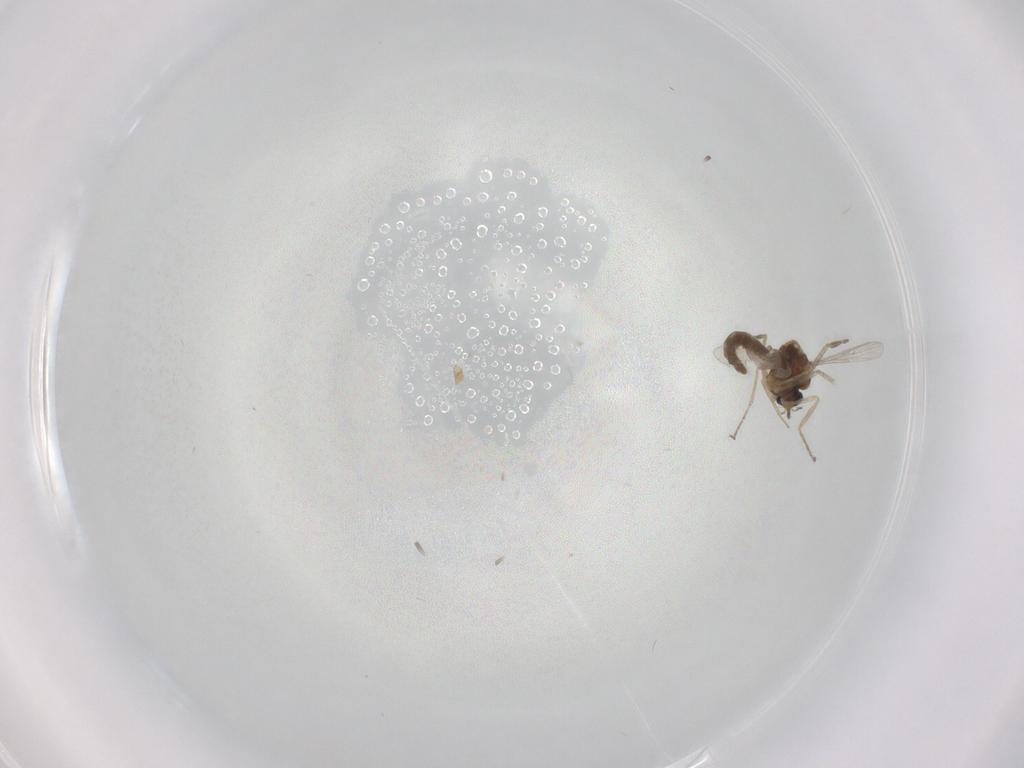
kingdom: Animalia
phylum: Arthropoda
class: Insecta
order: Diptera
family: Ceratopogonidae
